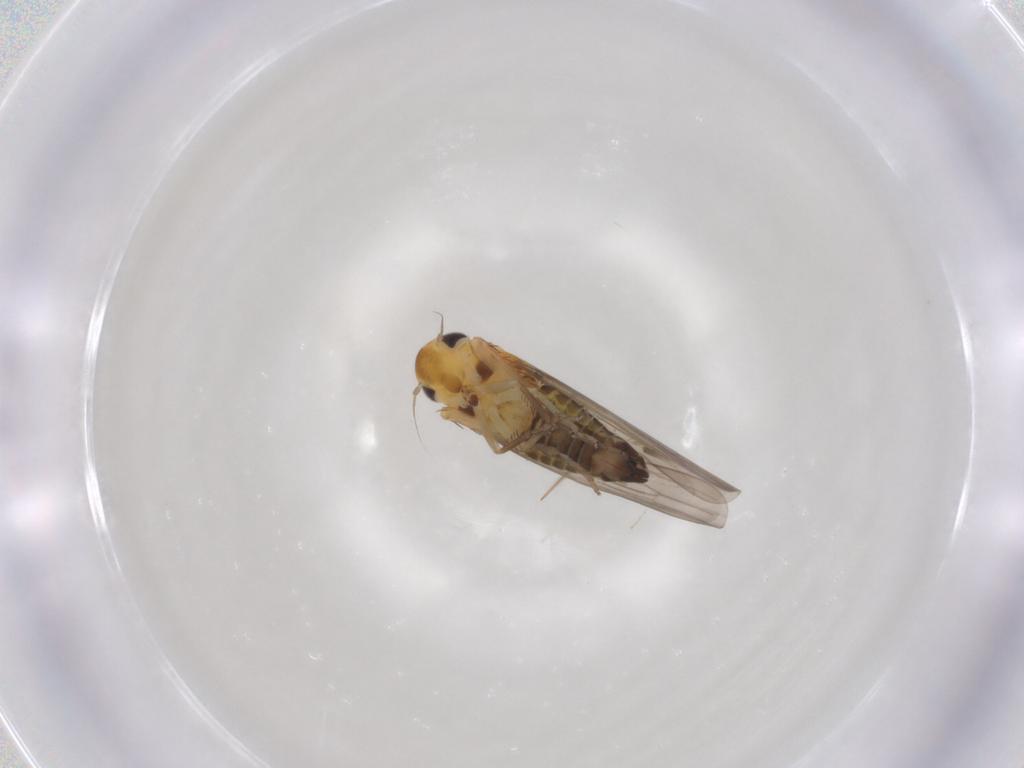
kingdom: Animalia
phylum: Arthropoda
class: Insecta
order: Hemiptera
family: Cicadellidae
